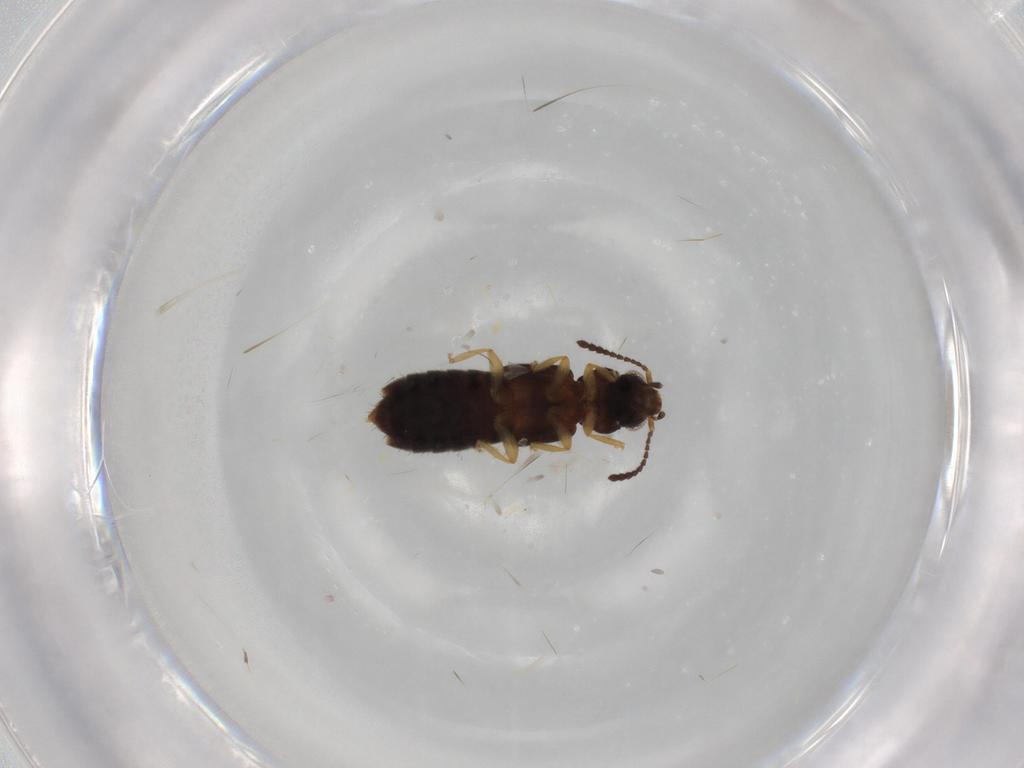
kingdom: Animalia
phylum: Arthropoda
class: Insecta
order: Coleoptera
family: Staphylinidae
